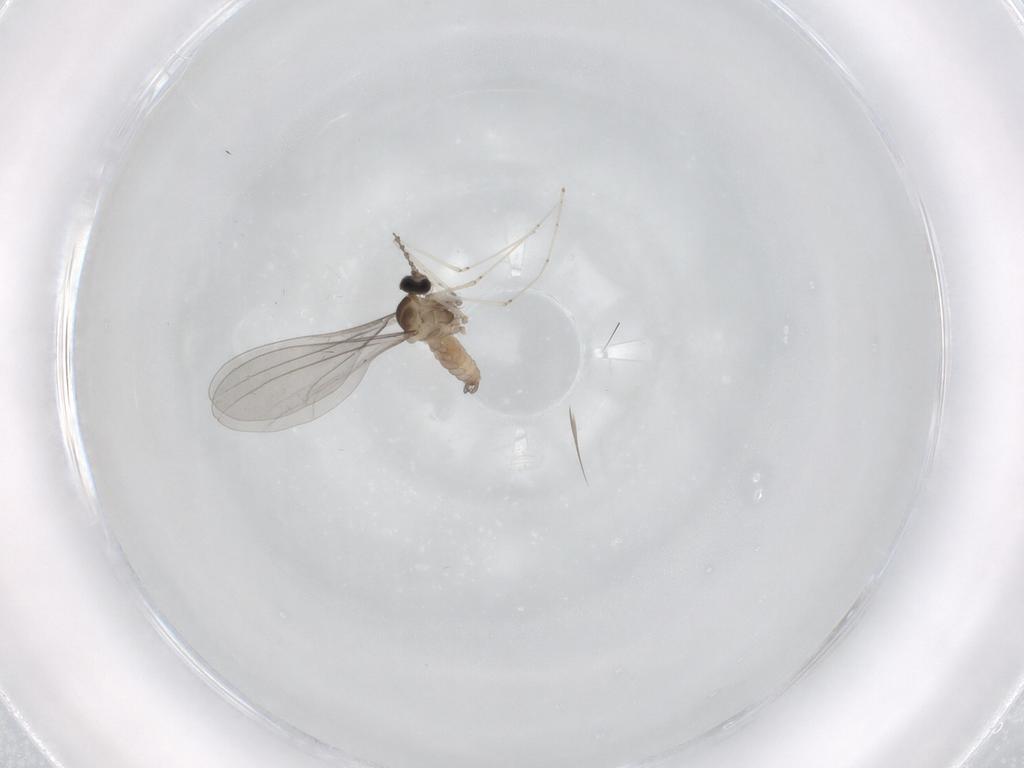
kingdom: Animalia
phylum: Arthropoda
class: Insecta
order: Diptera
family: Cecidomyiidae
